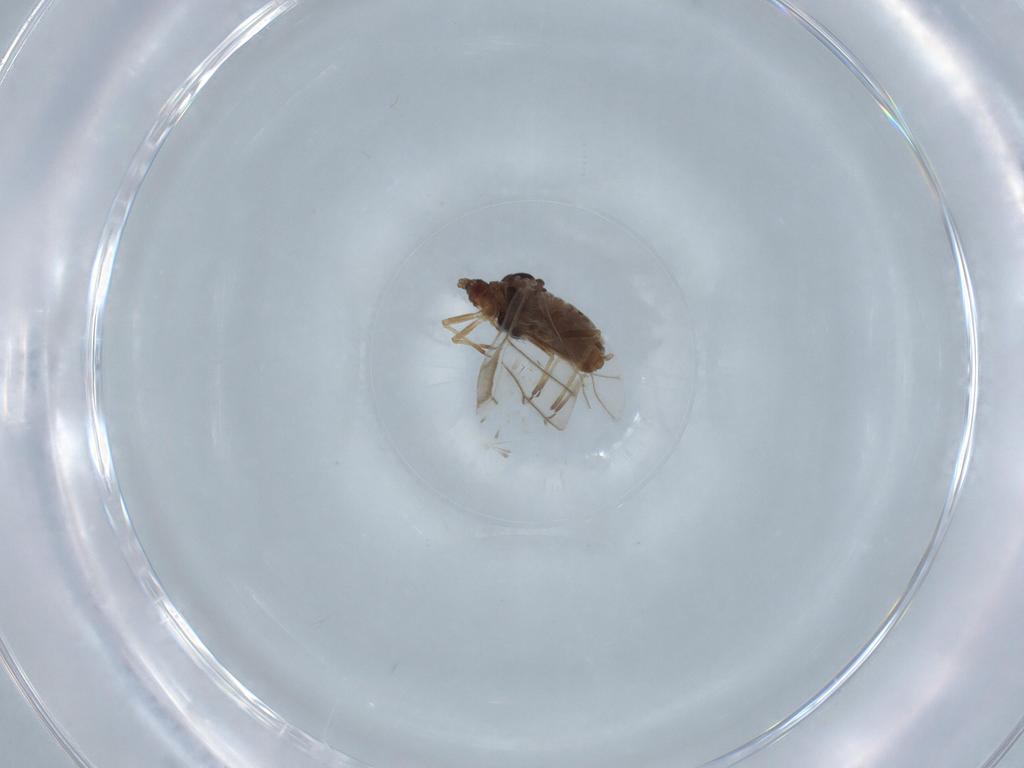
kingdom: Animalia
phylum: Arthropoda
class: Insecta
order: Hemiptera
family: Aphididae
